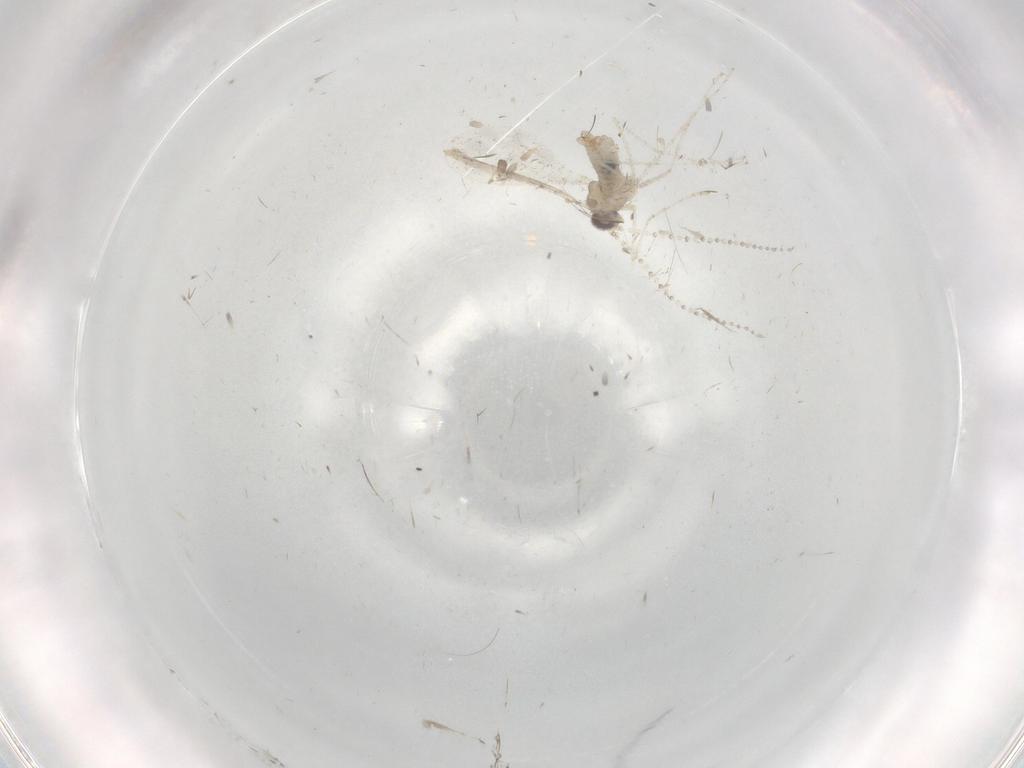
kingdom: Animalia
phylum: Arthropoda
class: Insecta
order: Diptera
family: Cecidomyiidae
